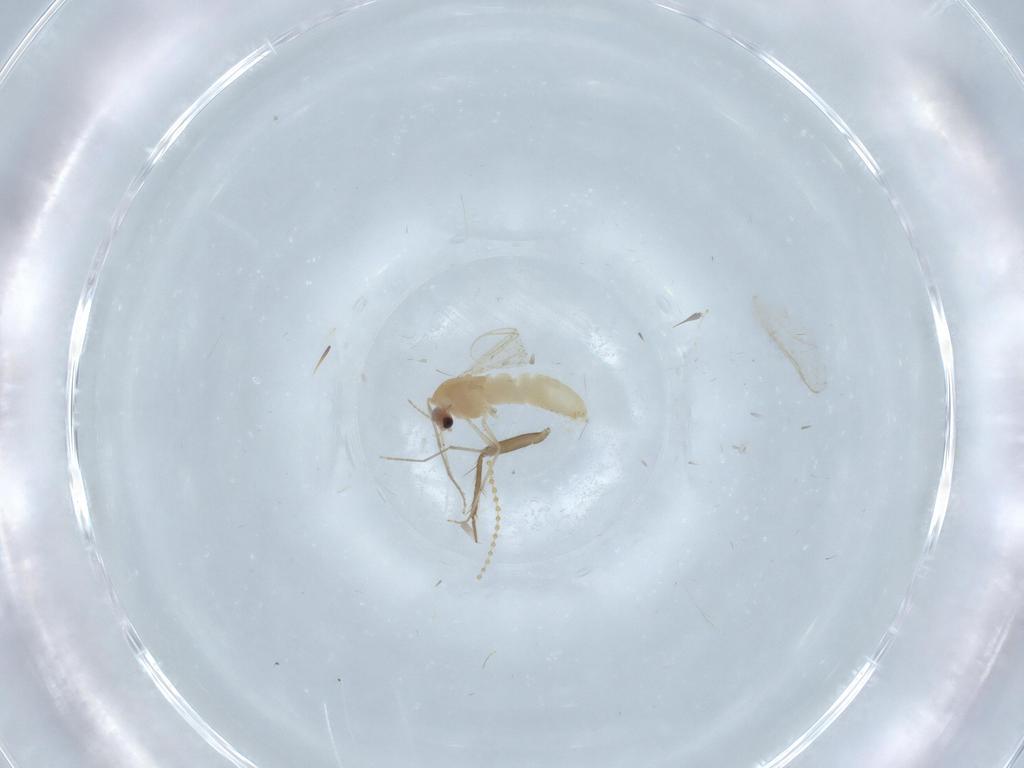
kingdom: Animalia
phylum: Arthropoda
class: Insecta
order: Diptera
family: Chironomidae
